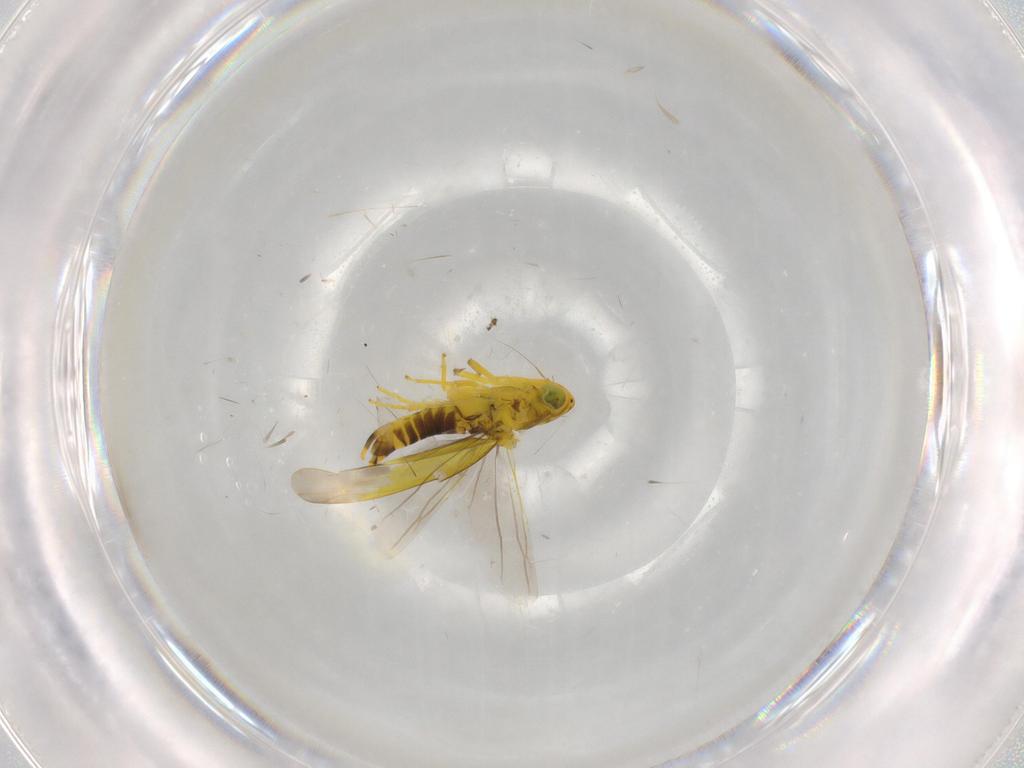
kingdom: Animalia
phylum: Arthropoda
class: Insecta
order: Hemiptera
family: Cicadellidae
